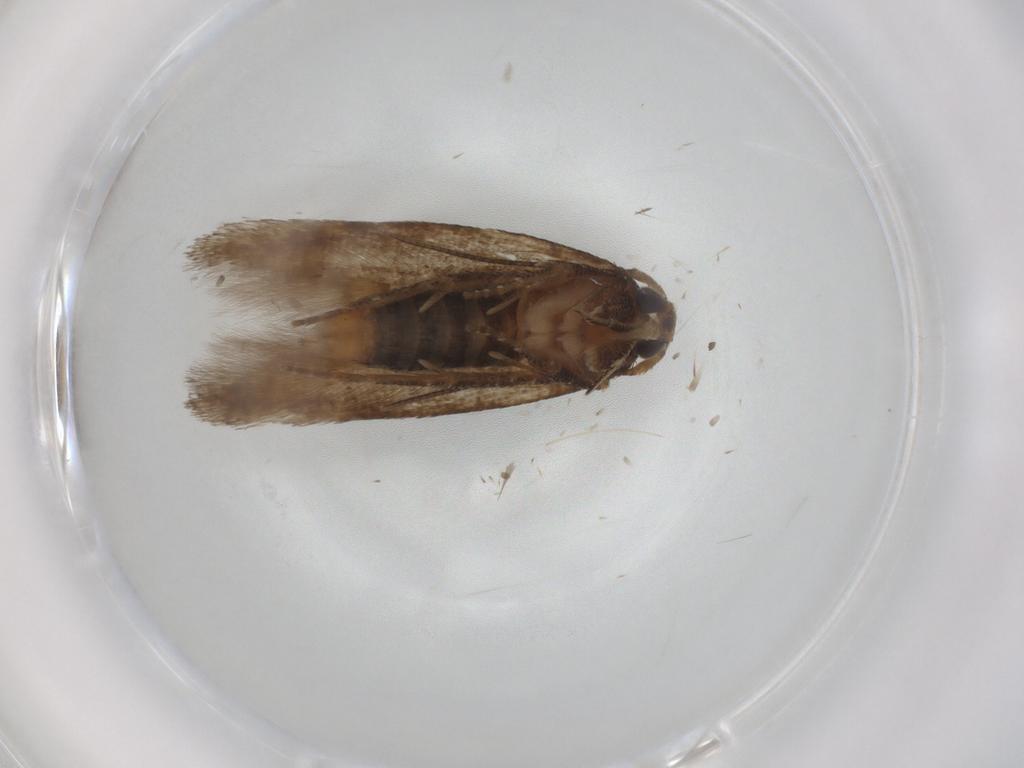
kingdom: Animalia
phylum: Arthropoda
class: Insecta
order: Lepidoptera
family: Cosmopterigidae
